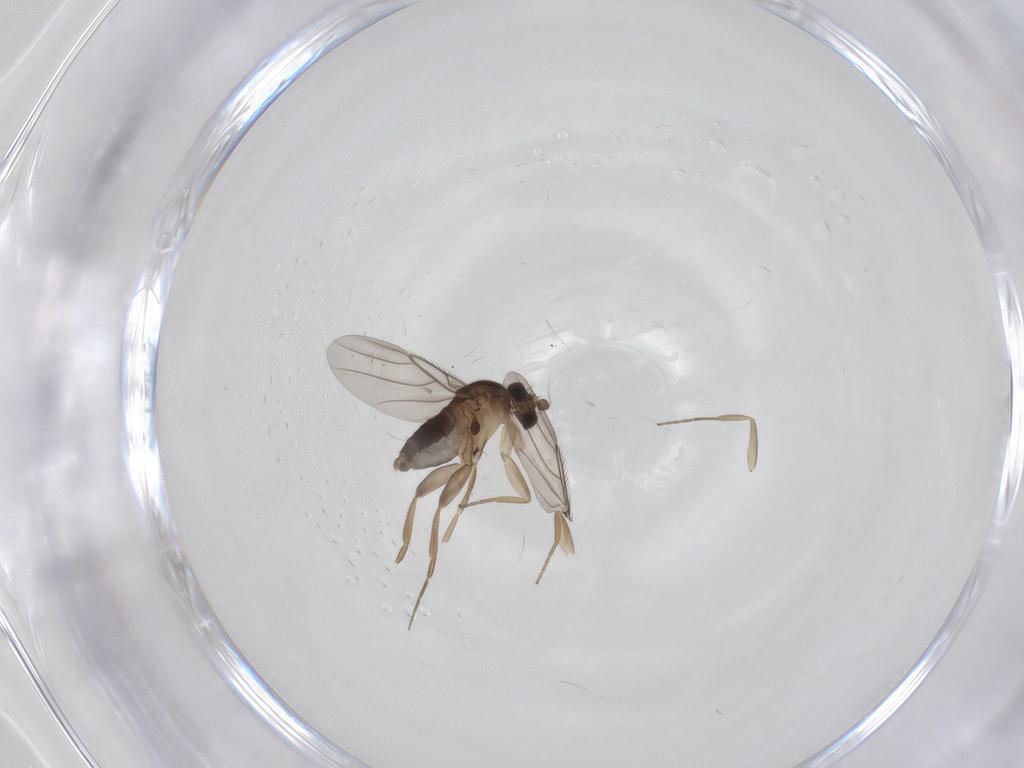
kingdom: Animalia
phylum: Arthropoda
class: Insecta
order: Diptera
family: Phoridae
